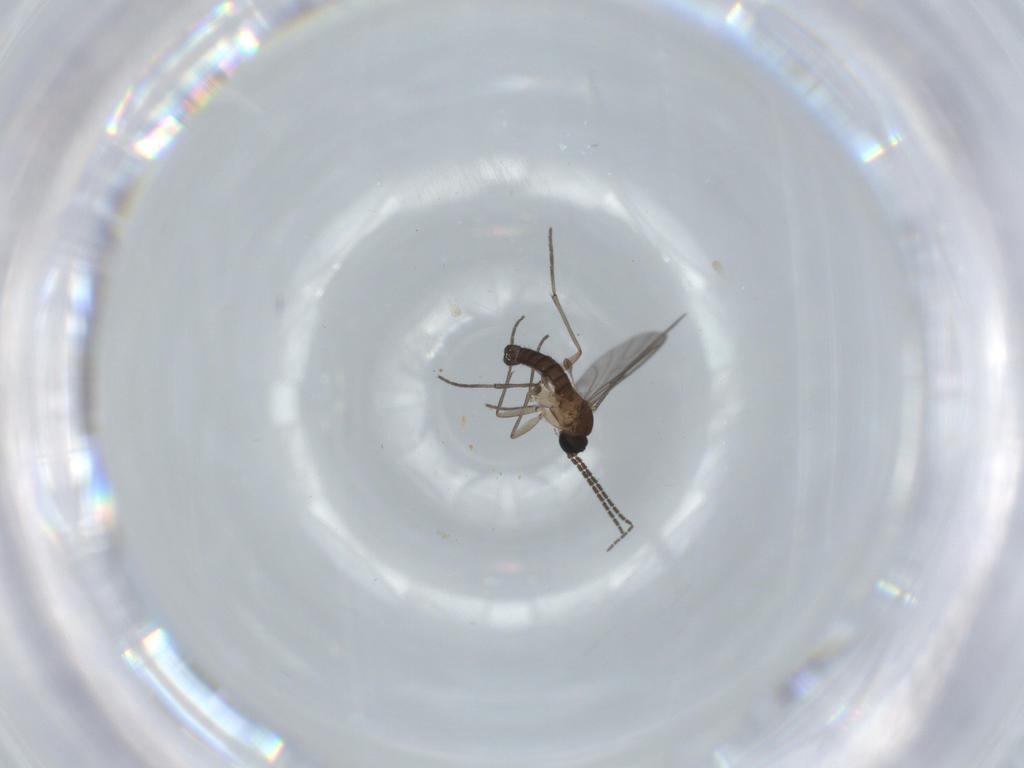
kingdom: Animalia
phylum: Arthropoda
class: Insecta
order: Diptera
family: Sciaridae
